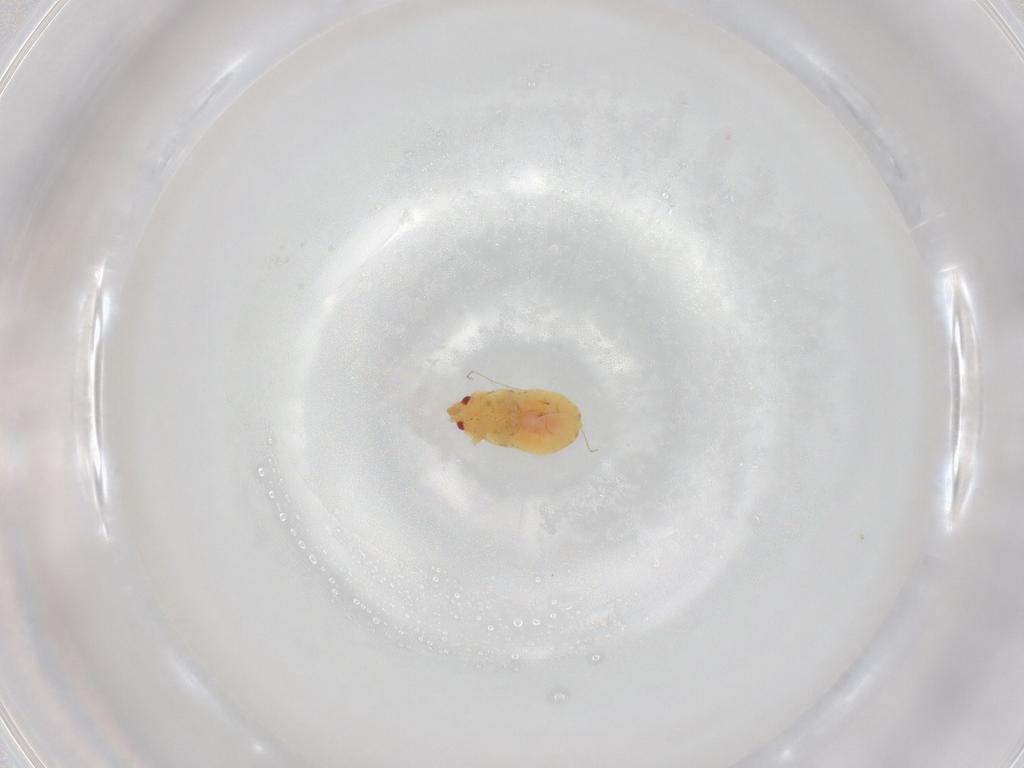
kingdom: Animalia
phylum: Arthropoda
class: Insecta
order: Hemiptera
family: Anthocoridae
